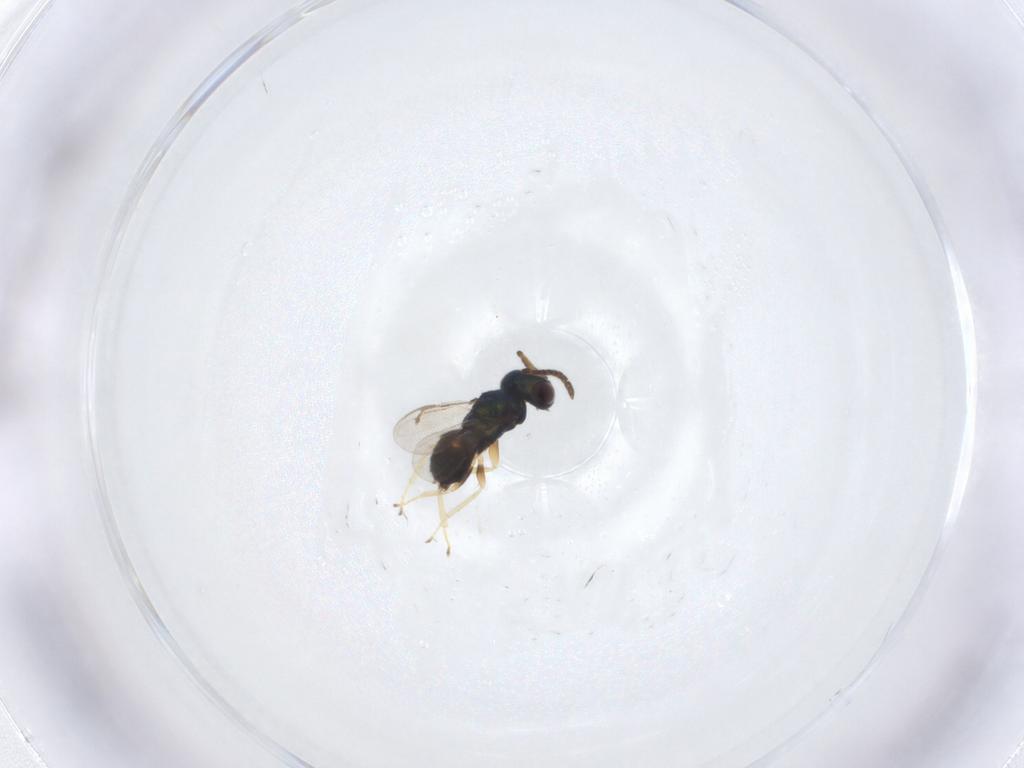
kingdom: Animalia
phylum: Arthropoda
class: Insecta
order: Hymenoptera
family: Pteromalidae
